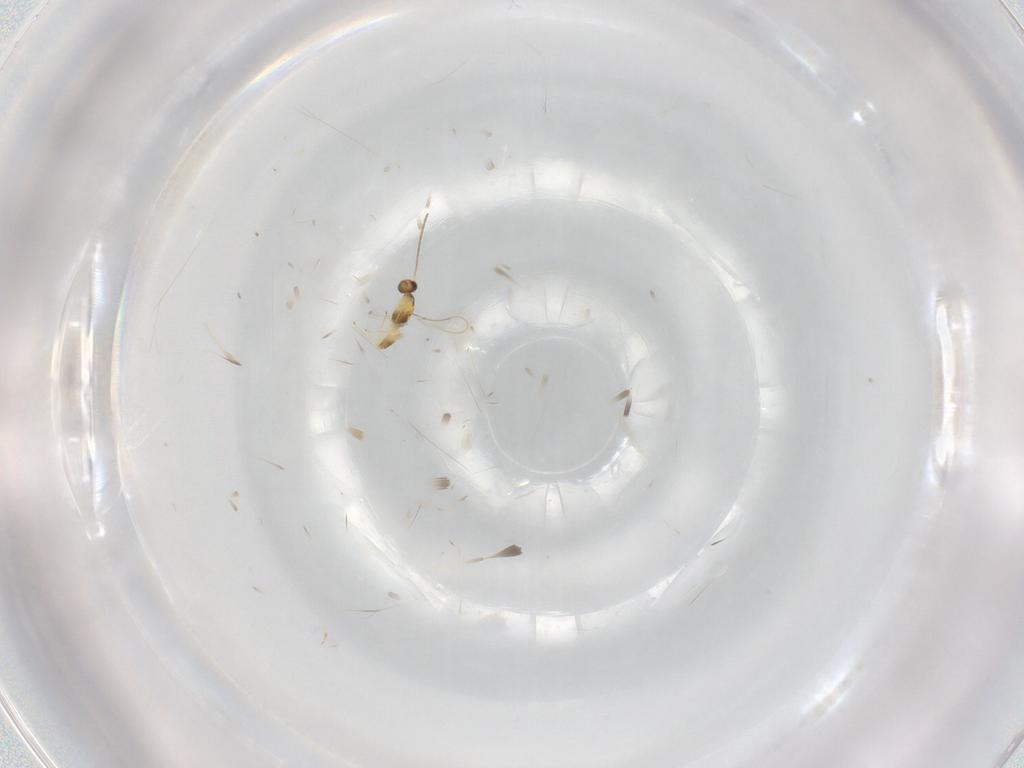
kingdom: Animalia
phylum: Arthropoda
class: Insecta
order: Hymenoptera
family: Mymaridae
